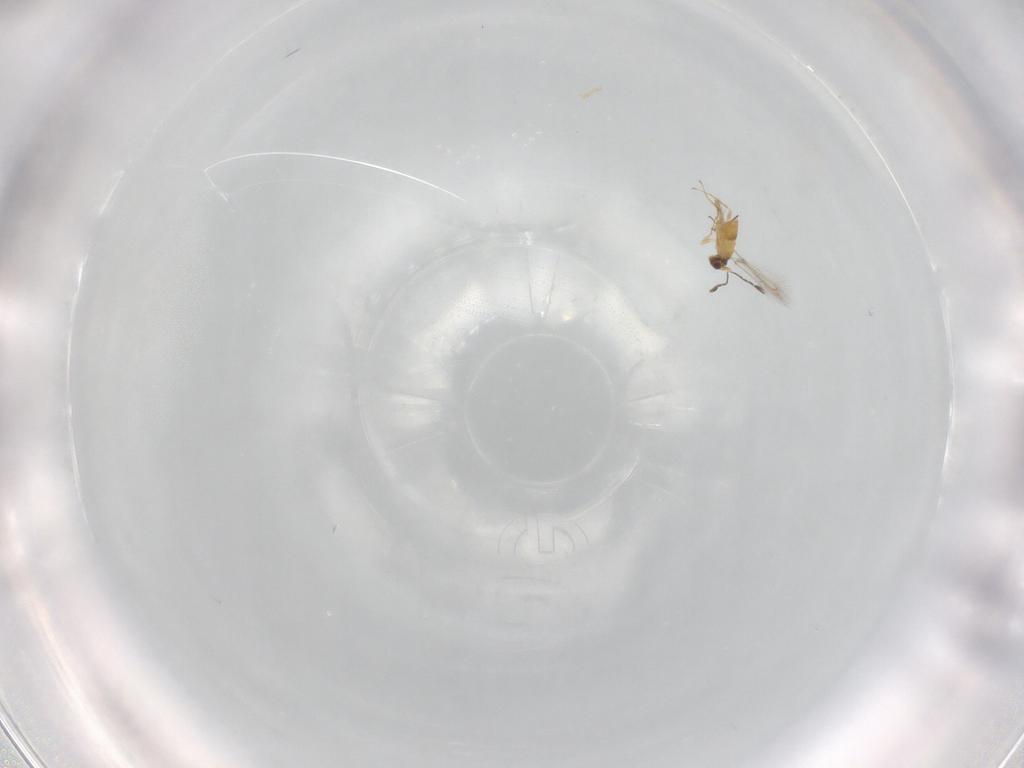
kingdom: Animalia
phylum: Arthropoda
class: Insecta
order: Hymenoptera
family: Mymaridae
